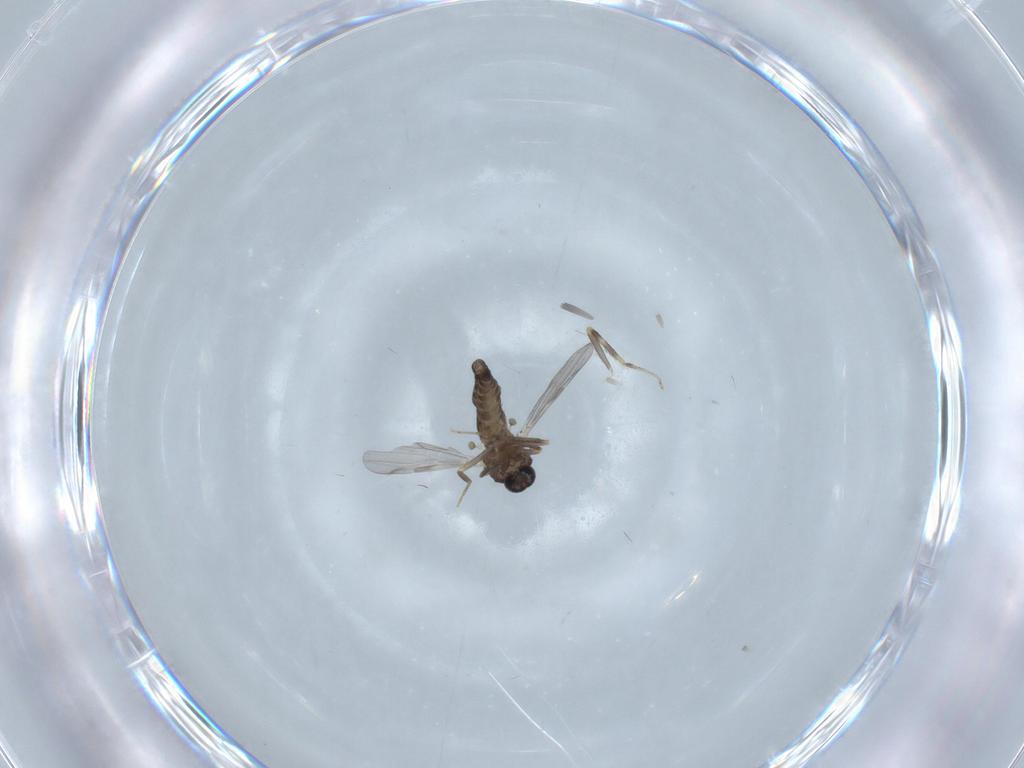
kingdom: Animalia
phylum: Arthropoda
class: Insecta
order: Diptera
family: Ceratopogonidae
